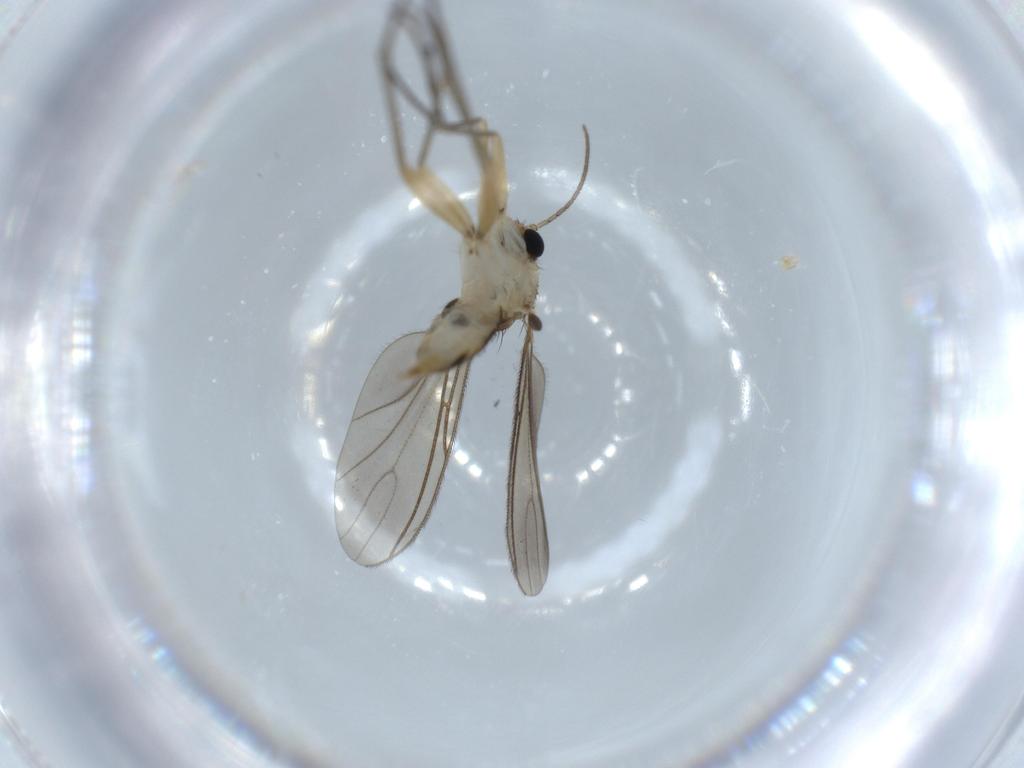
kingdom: Animalia
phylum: Arthropoda
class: Insecta
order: Diptera
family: Sciaridae
